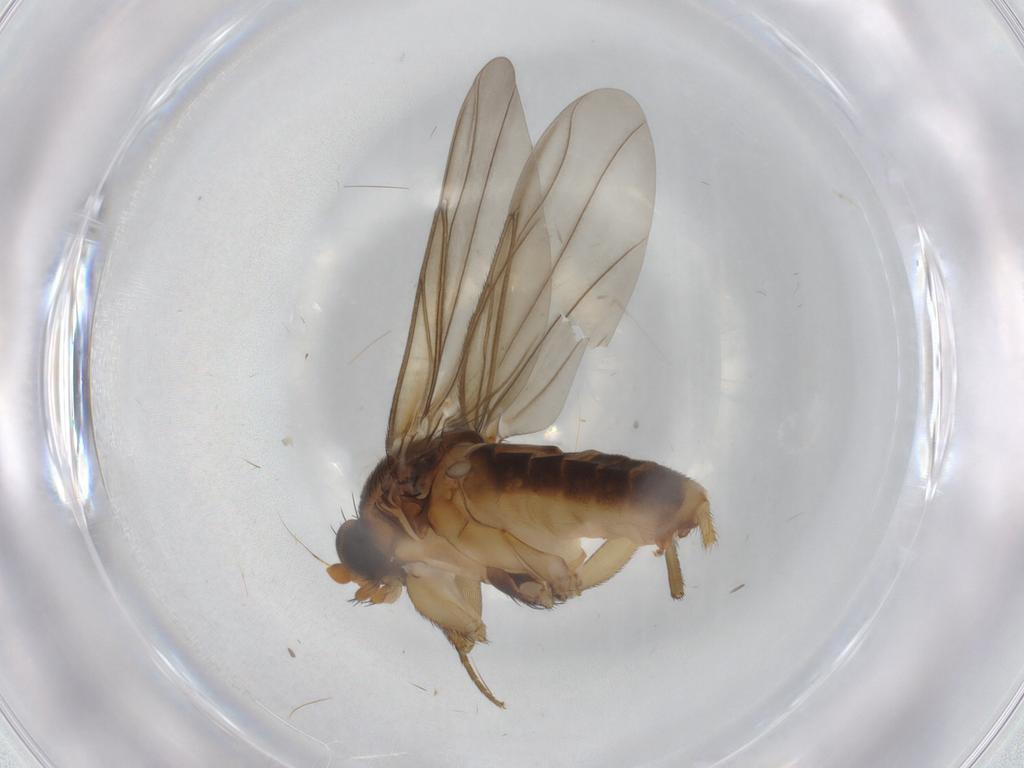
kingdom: Animalia
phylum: Arthropoda
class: Insecta
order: Diptera
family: Phoridae
